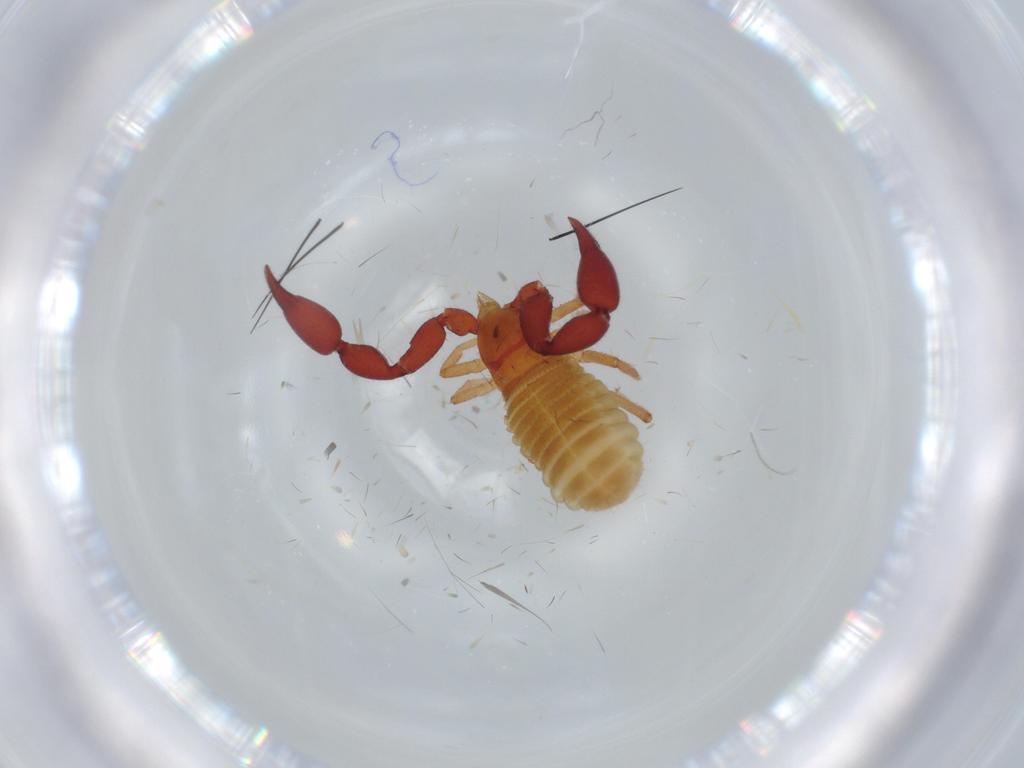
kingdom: Animalia
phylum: Arthropoda
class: Arachnida
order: Pseudoscorpiones
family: Chernetidae
